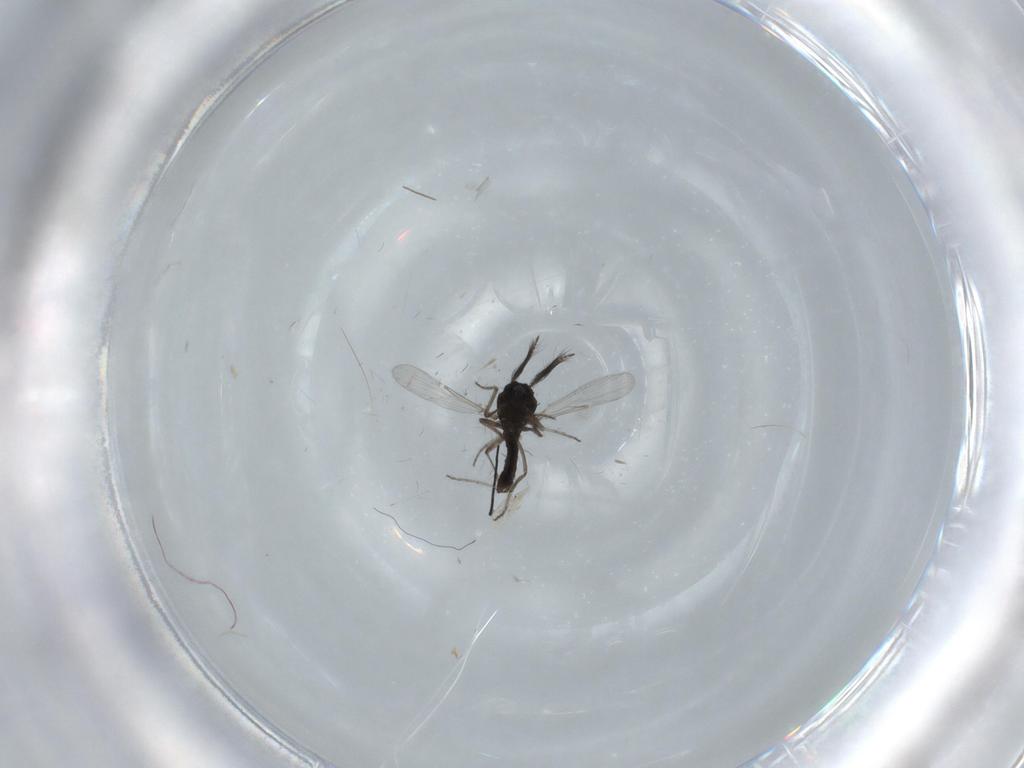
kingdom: Animalia
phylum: Arthropoda
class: Insecta
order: Diptera
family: Ceratopogonidae
